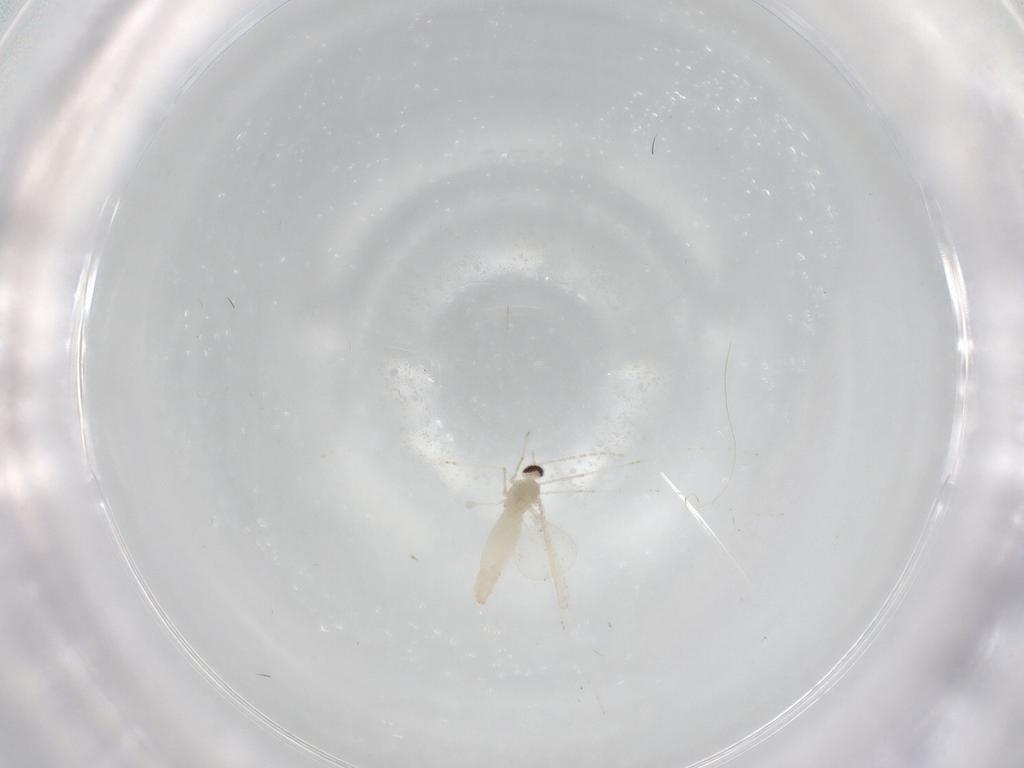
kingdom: Animalia
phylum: Arthropoda
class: Insecta
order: Diptera
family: Cecidomyiidae
